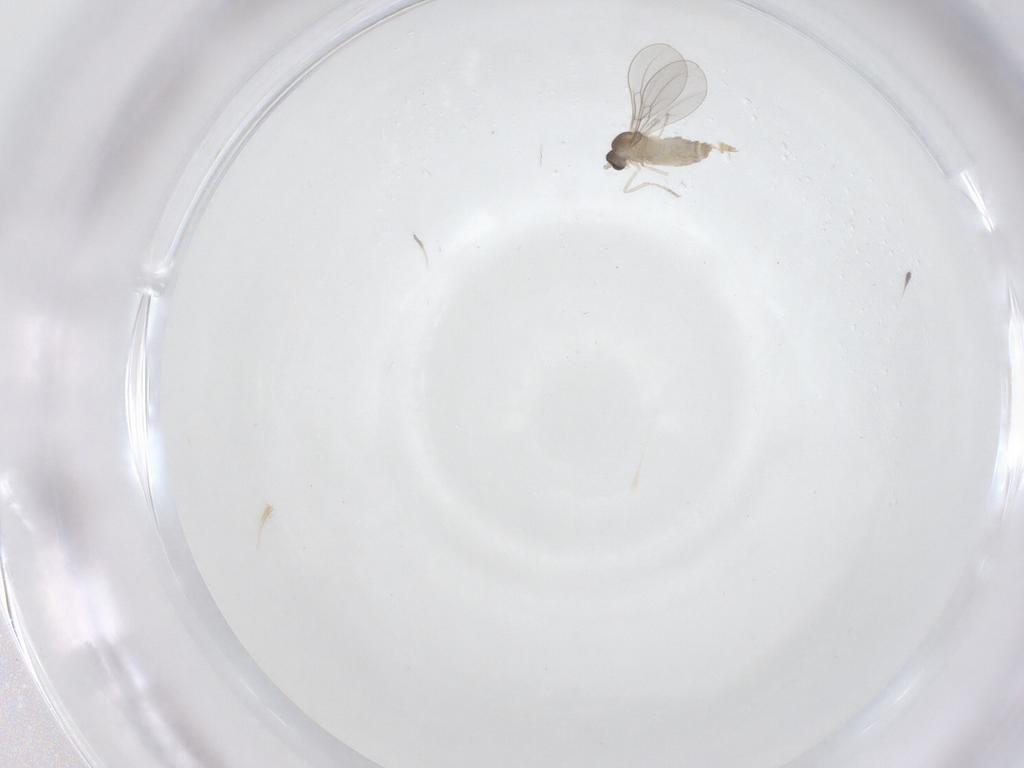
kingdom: Animalia
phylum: Arthropoda
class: Insecta
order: Diptera
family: Cecidomyiidae
